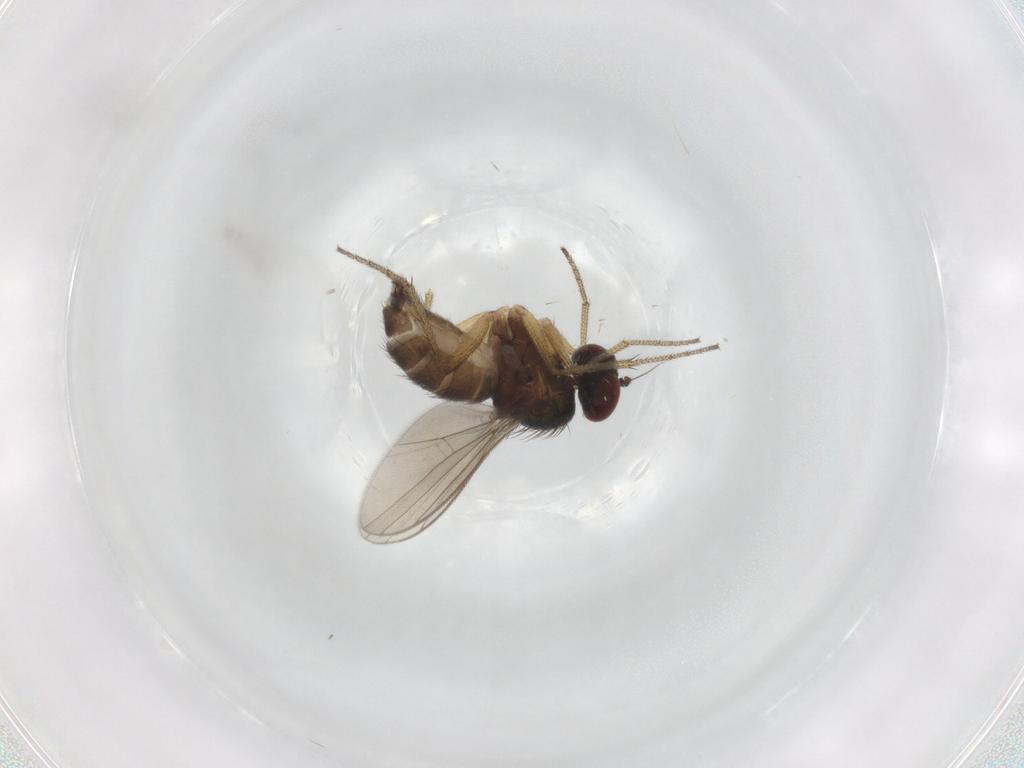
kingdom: Animalia
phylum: Arthropoda
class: Insecta
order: Diptera
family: Dolichopodidae
